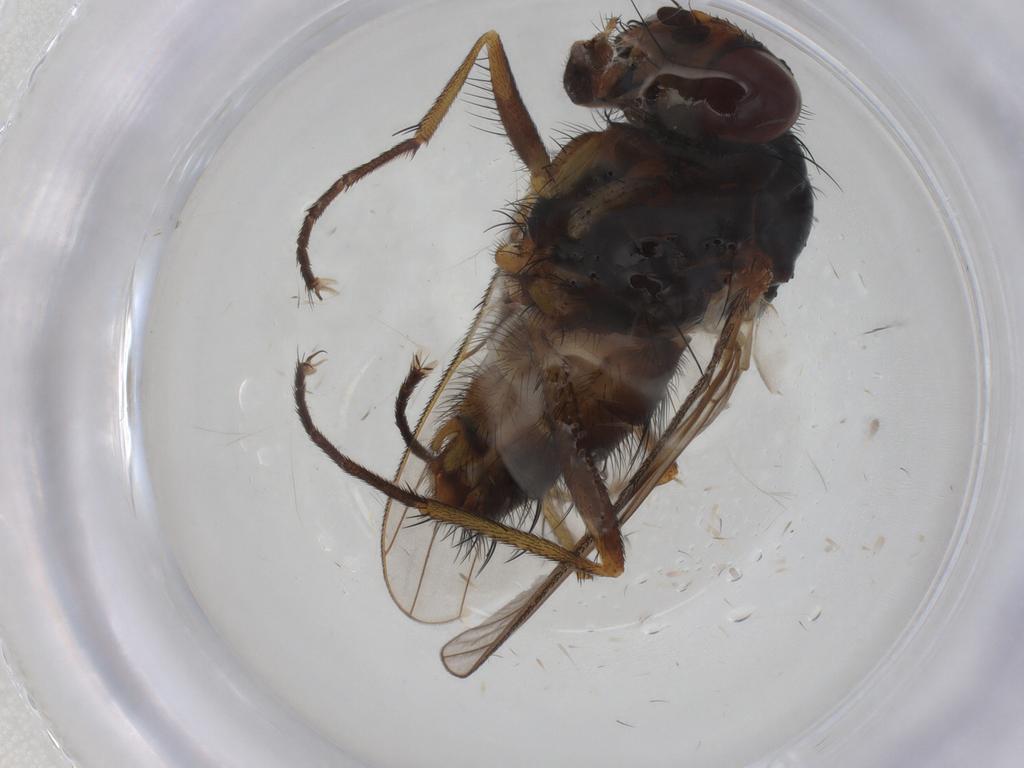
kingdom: Animalia
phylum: Arthropoda
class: Insecta
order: Diptera
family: Anthomyiidae
